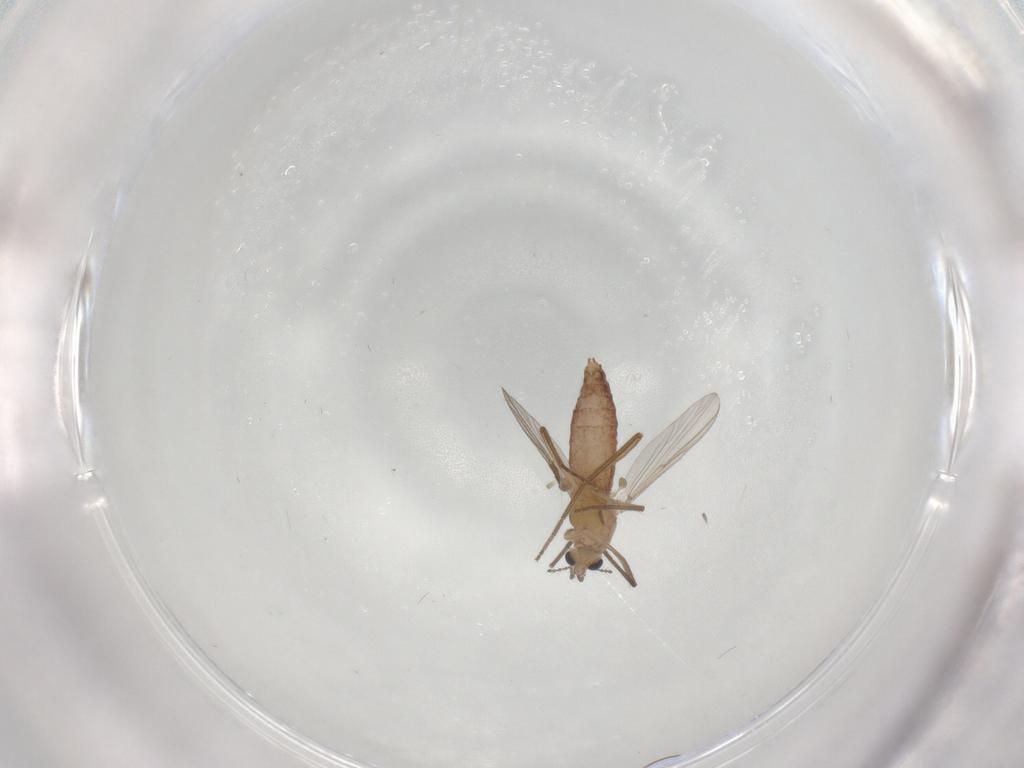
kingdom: Animalia
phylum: Arthropoda
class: Insecta
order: Diptera
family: Chironomidae
